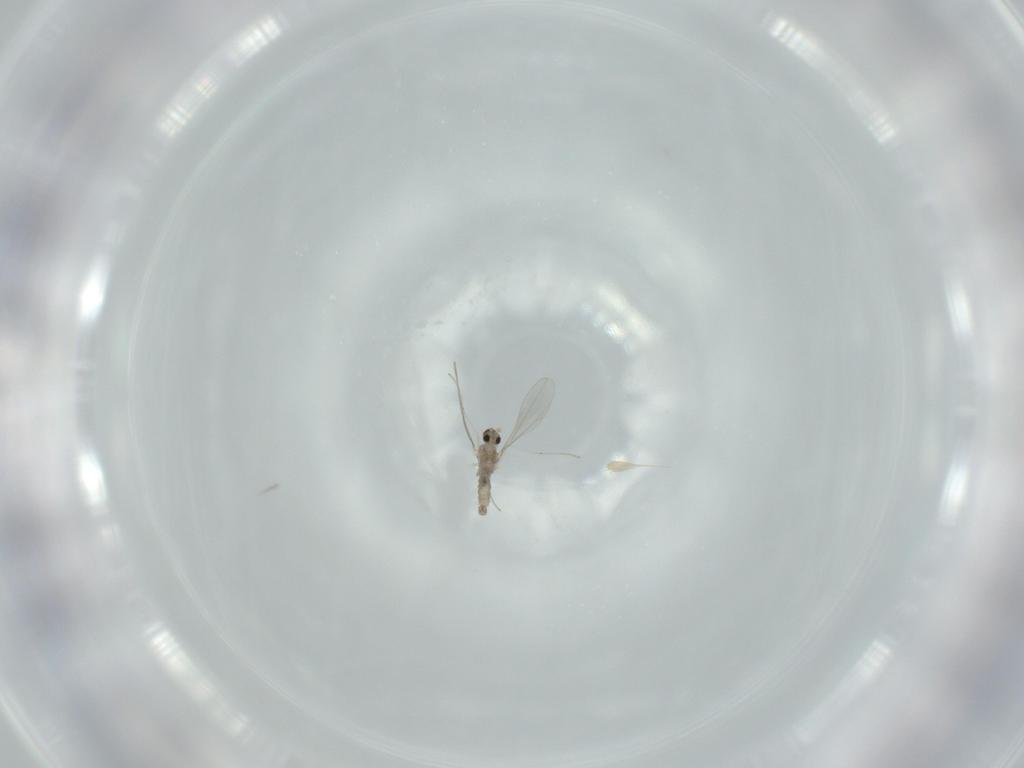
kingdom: Animalia
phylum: Arthropoda
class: Insecta
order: Diptera
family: Cecidomyiidae
